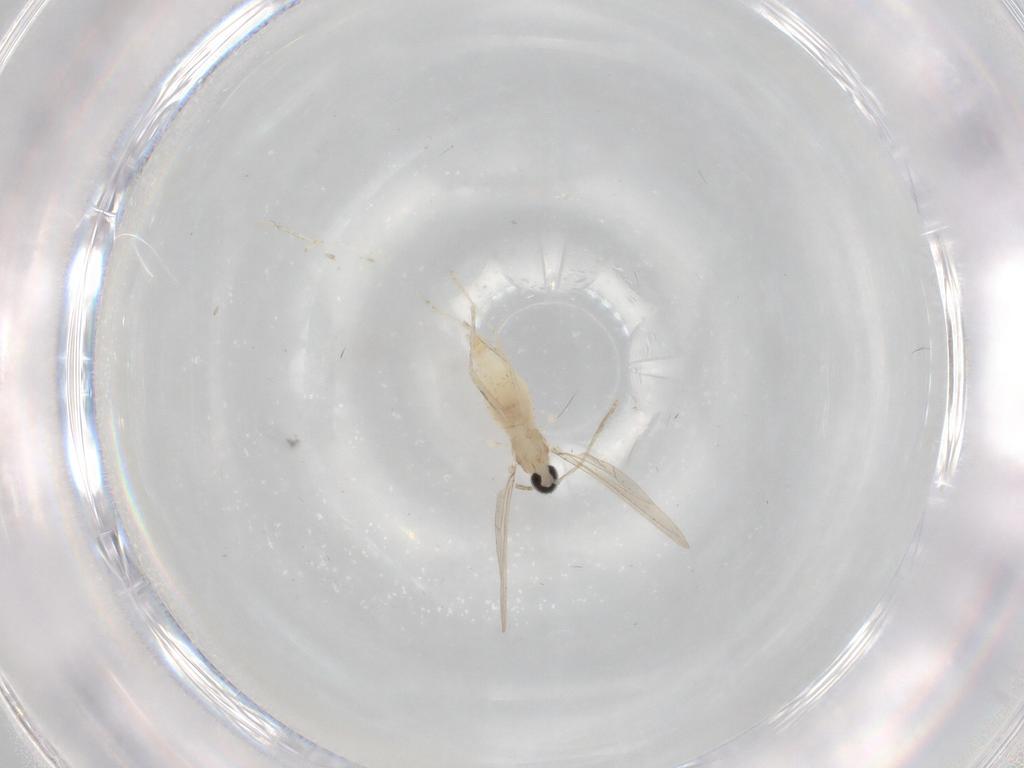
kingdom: Animalia
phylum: Arthropoda
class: Insecta
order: Diptera
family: Cecidomyiidae
